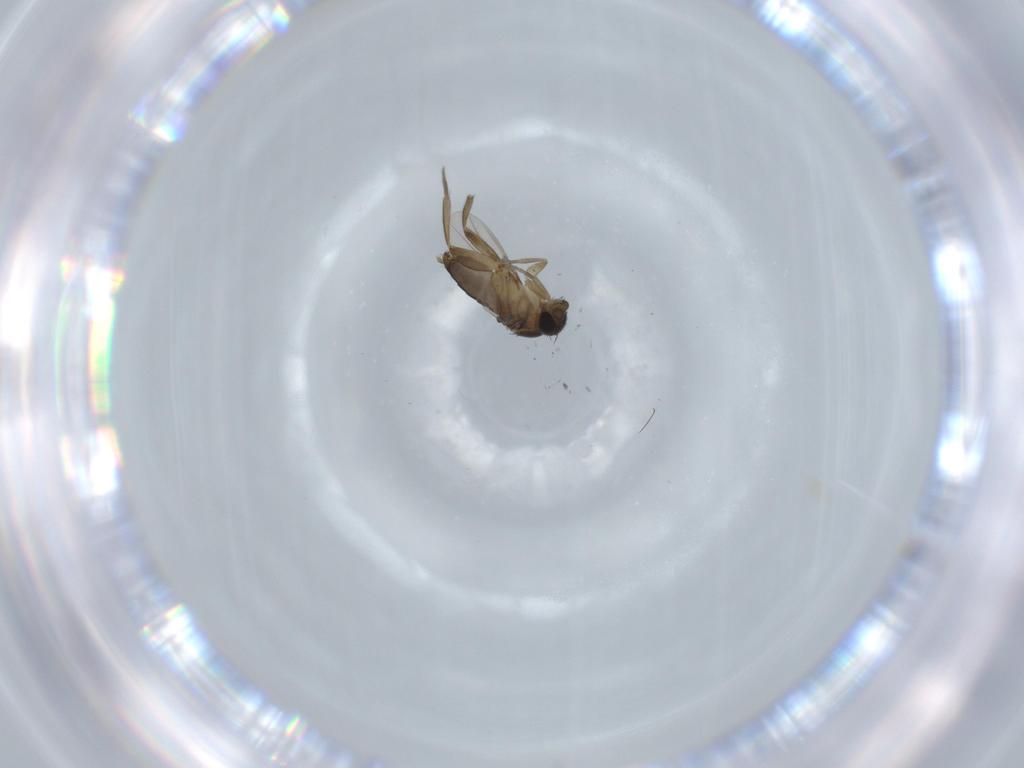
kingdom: Animalia
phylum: Arthropoda
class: Insecta
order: Diptera
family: Phoridae
